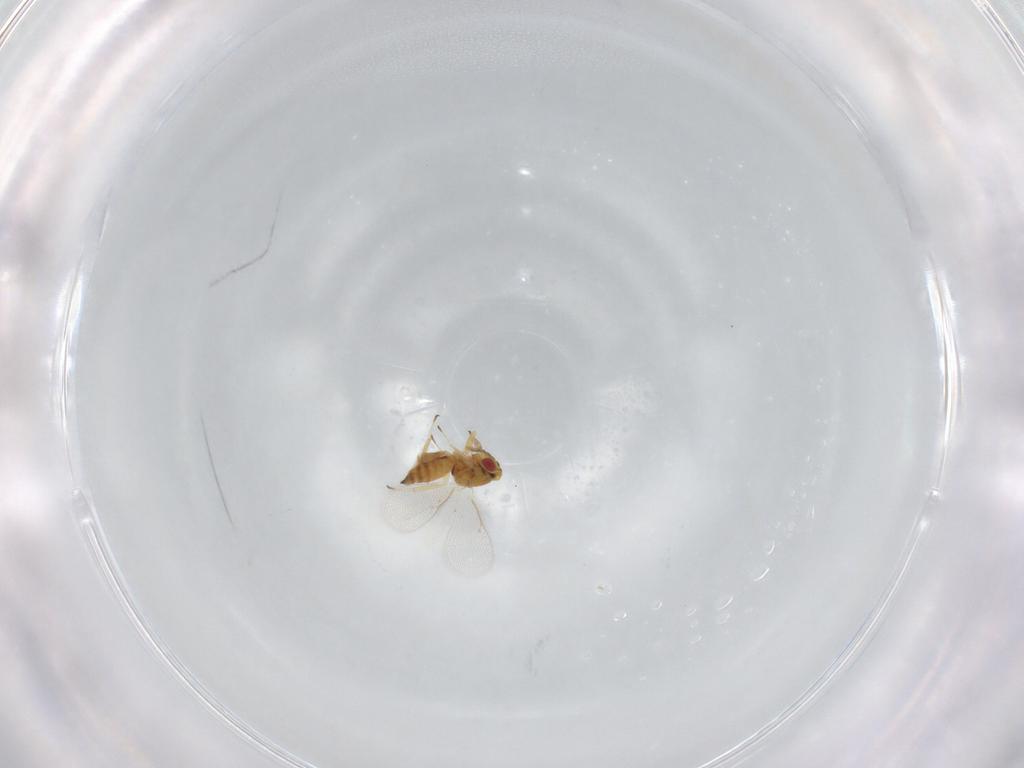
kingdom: Animalia
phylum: Arthropoda
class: Insecta
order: Hymenoptera
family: Eulophidae
